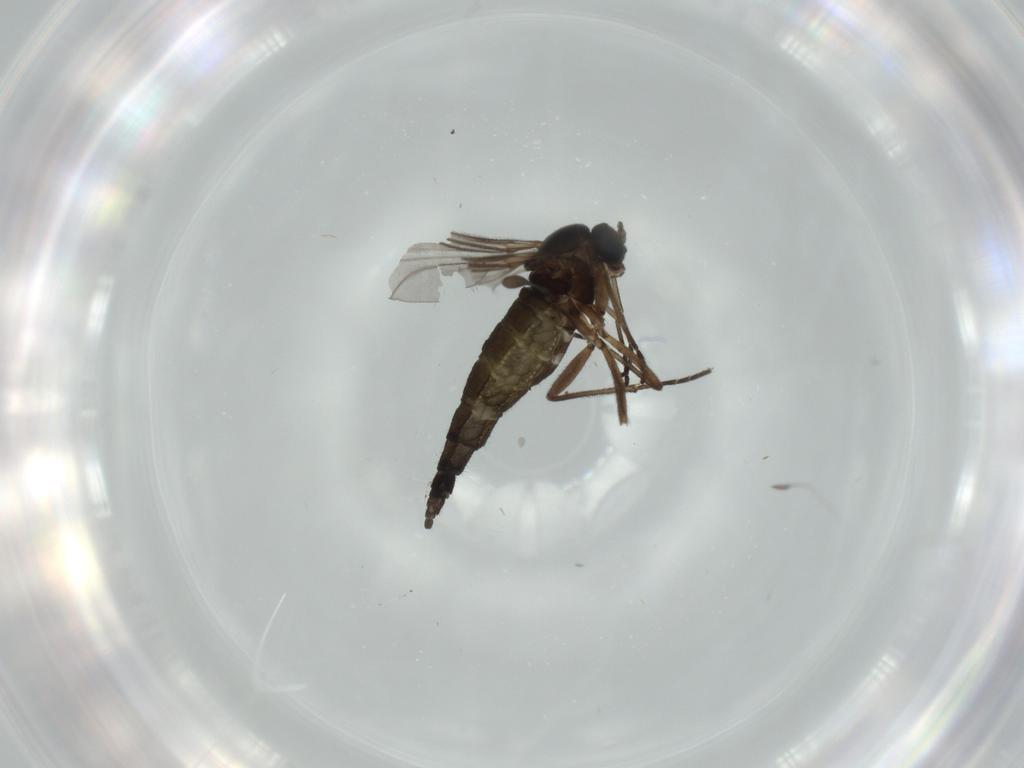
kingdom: Animalia
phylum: Arthropoda
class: Insecta
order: Diptera
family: Sciaridae
